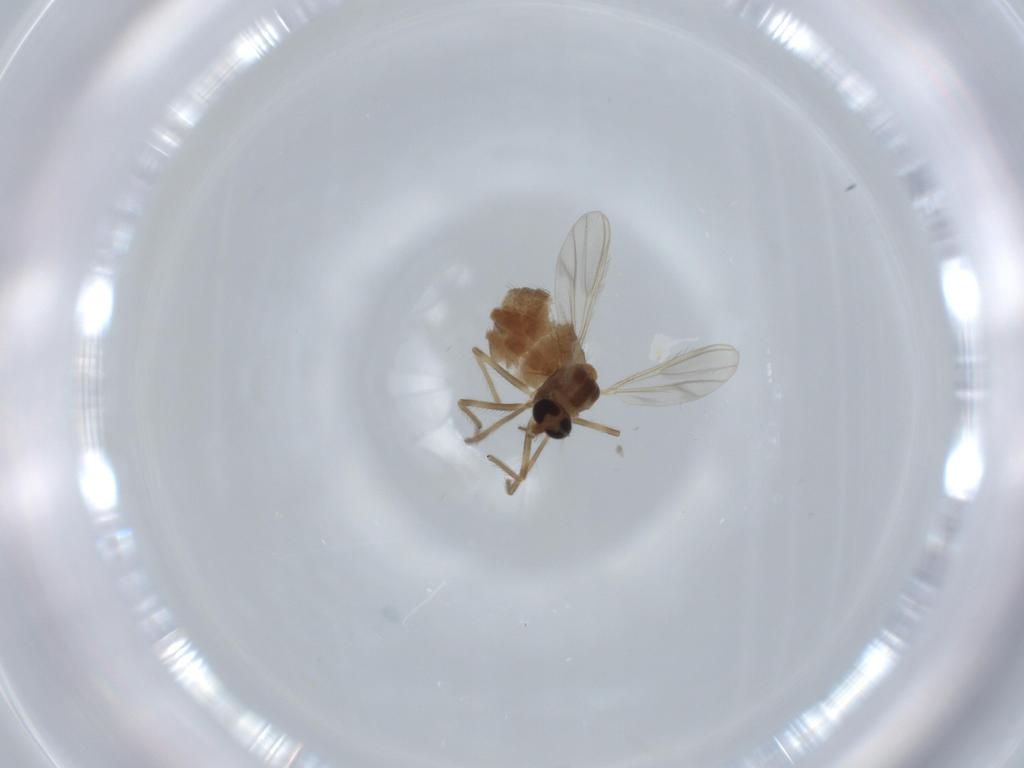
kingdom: Animalia
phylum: Arthropoda
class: Insecta
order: Diptera
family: Chironomidae
